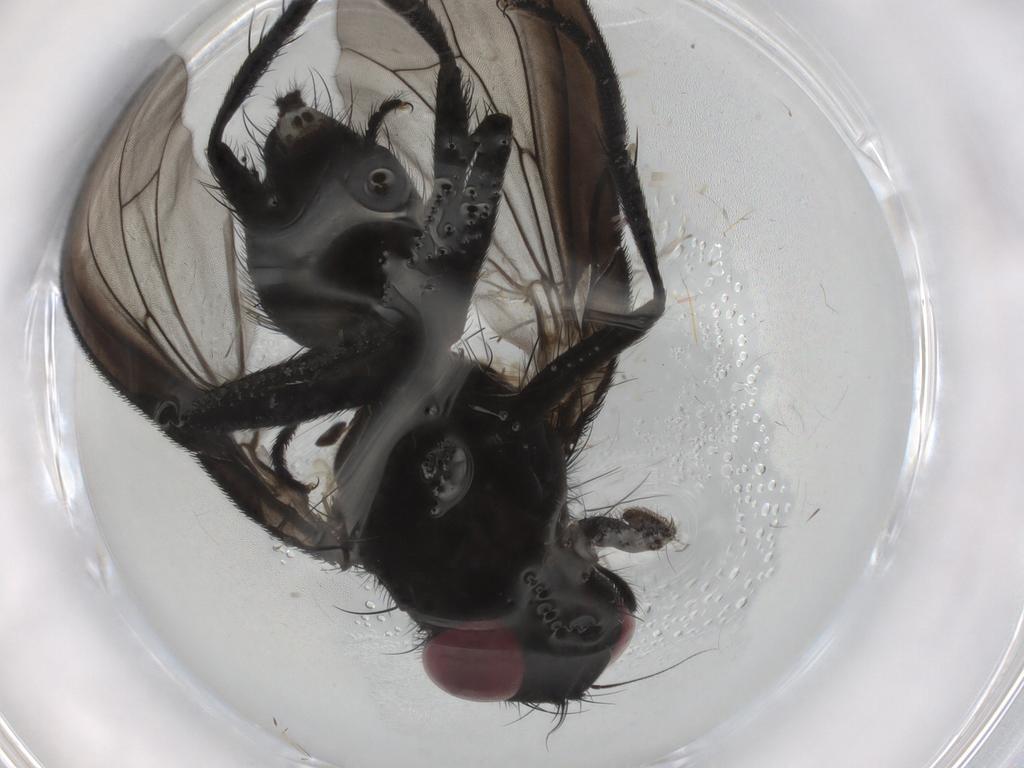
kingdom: Animalia
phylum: Arthropoda
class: Insecta
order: Diptera
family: Fannia
